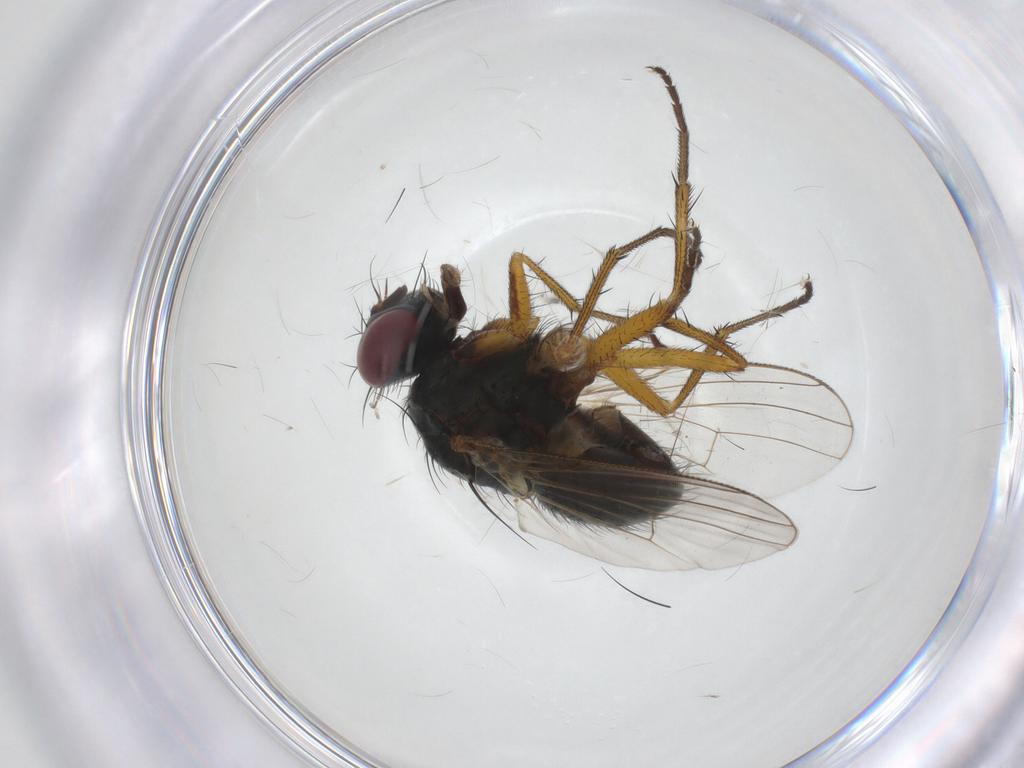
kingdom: Animalia
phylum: Arthropoda
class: Insecta
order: Diptera
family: Muscidae
